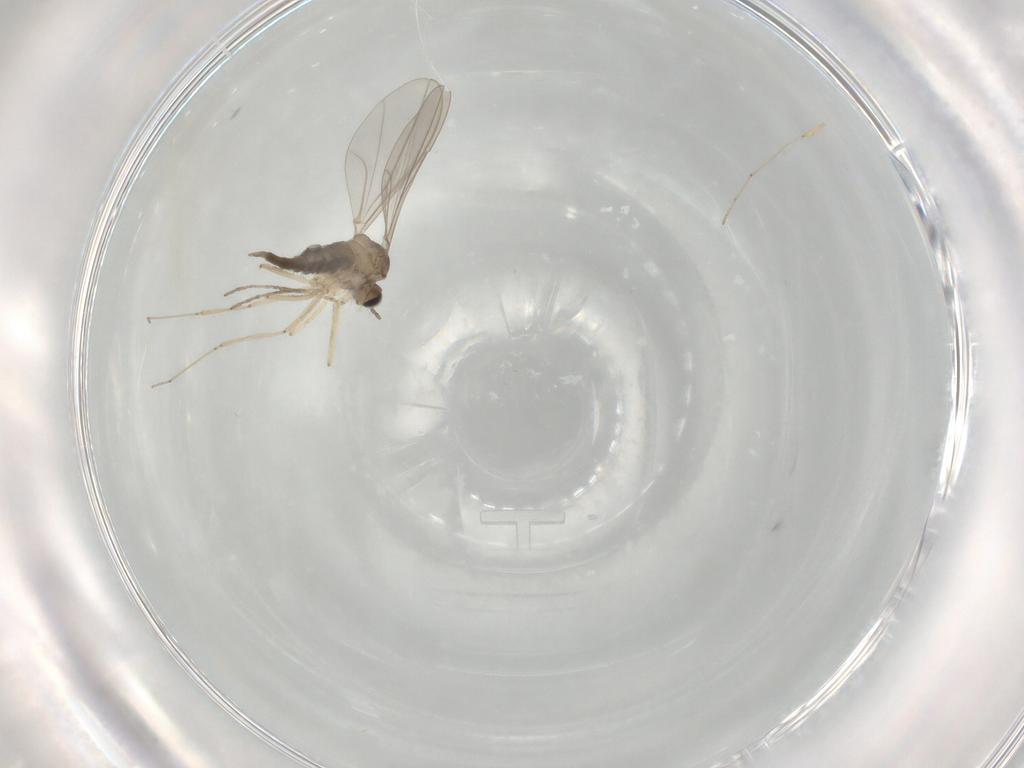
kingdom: Animalia
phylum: Arthropoda
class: Insecta
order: Diptera
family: Cecidomyiidae
